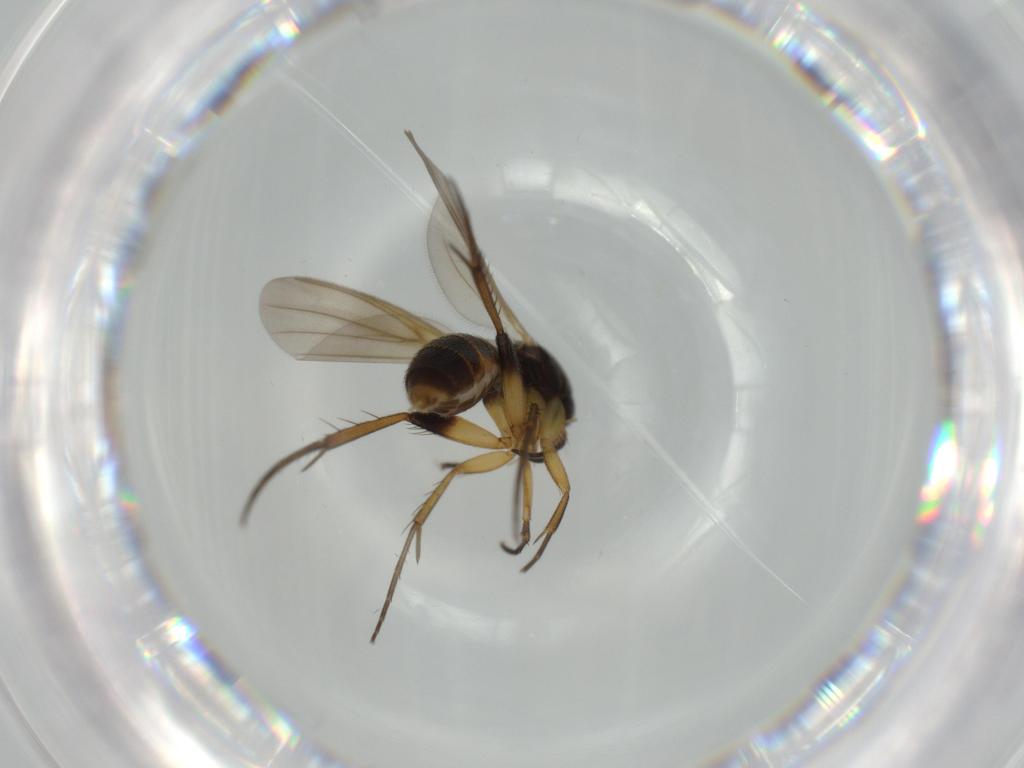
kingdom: Animalia
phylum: Arthropoda
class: Insecta
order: Diptera
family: Mycetophilidae
